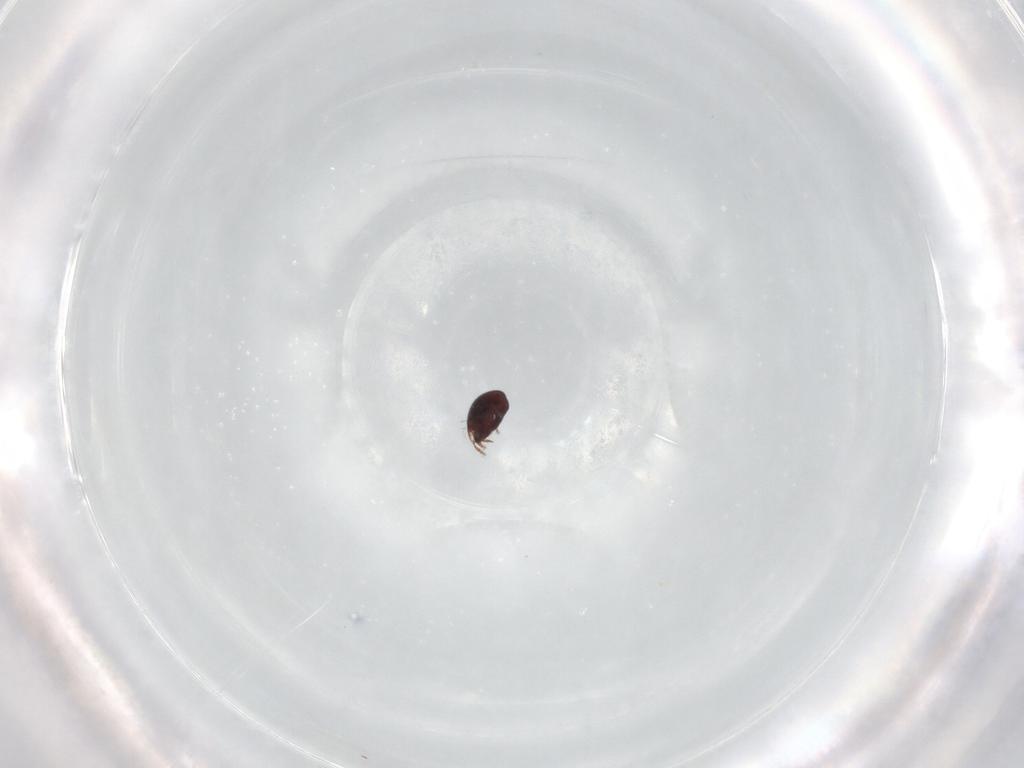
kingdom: Animalia
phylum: Arthropoda
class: Arachnida
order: Sarcoptiformes
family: Achipteriidae
